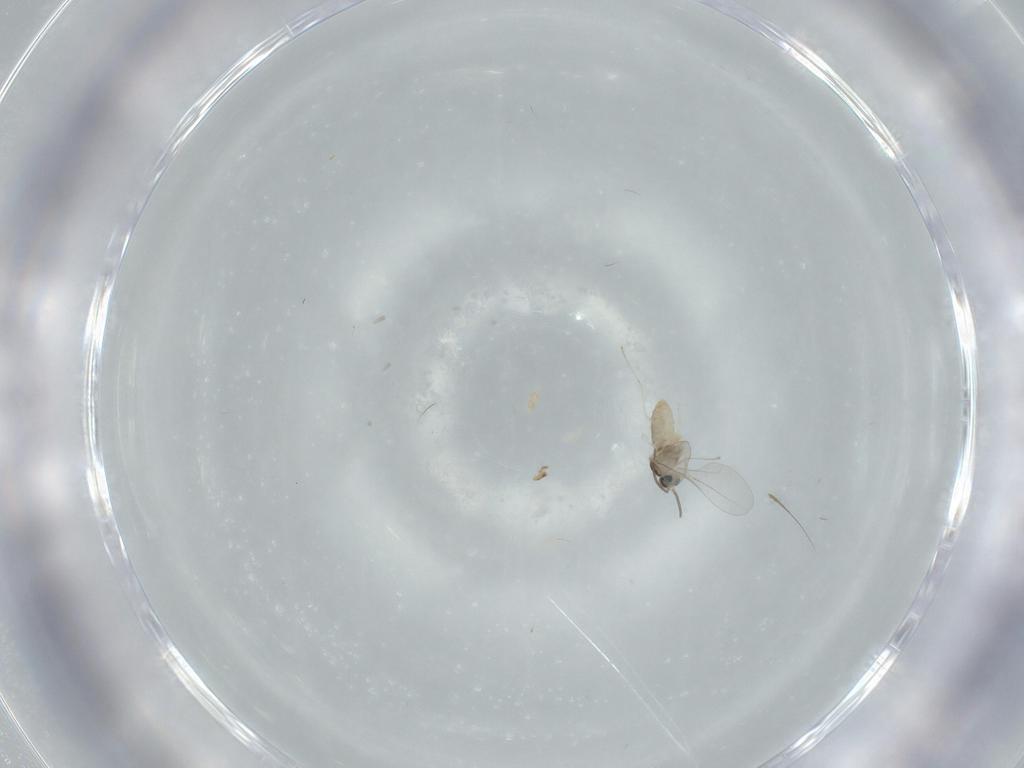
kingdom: Animalia
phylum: Arthropoda
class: Insecta
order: Diptera
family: Cecidomyiidae
